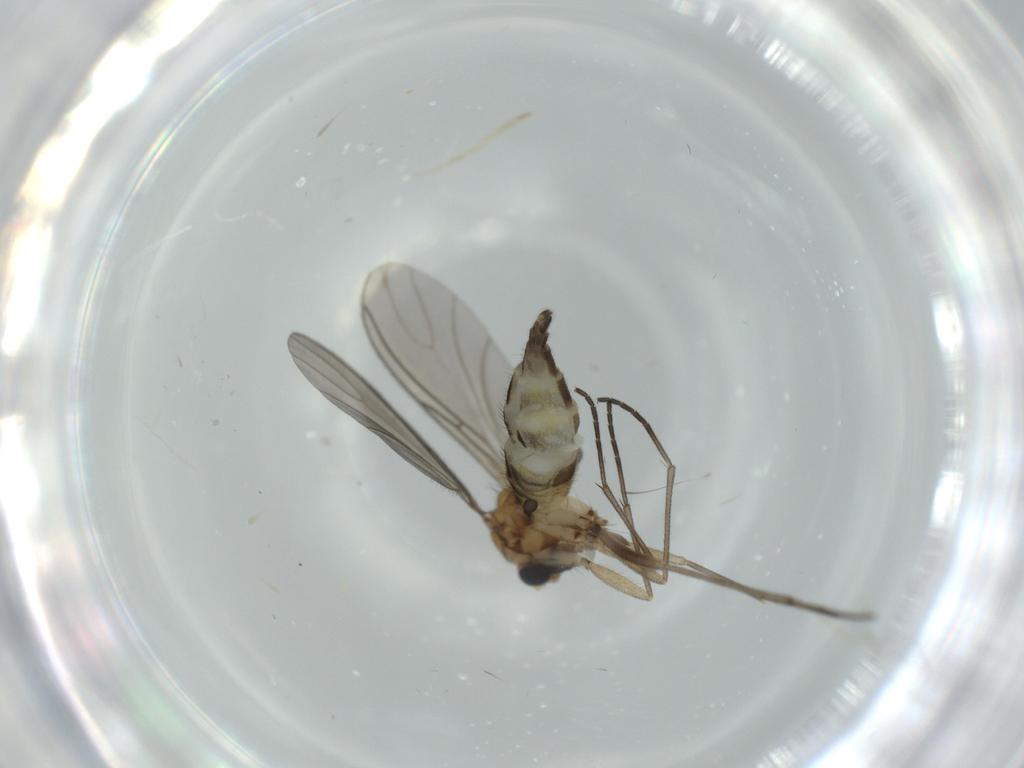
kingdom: Animalia
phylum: Arthropoda
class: Insecta
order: Diptera
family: Sciaridae
